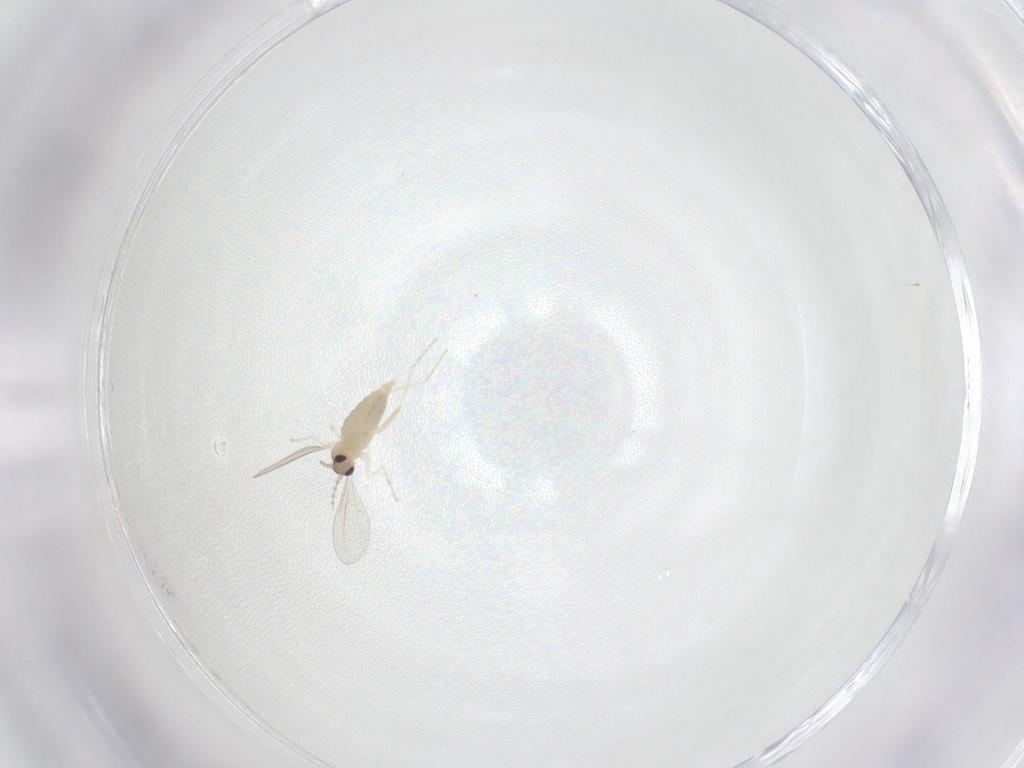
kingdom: Animalia
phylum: Arthropoda
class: Insecta
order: Diptera
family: Cecidomyiidae
